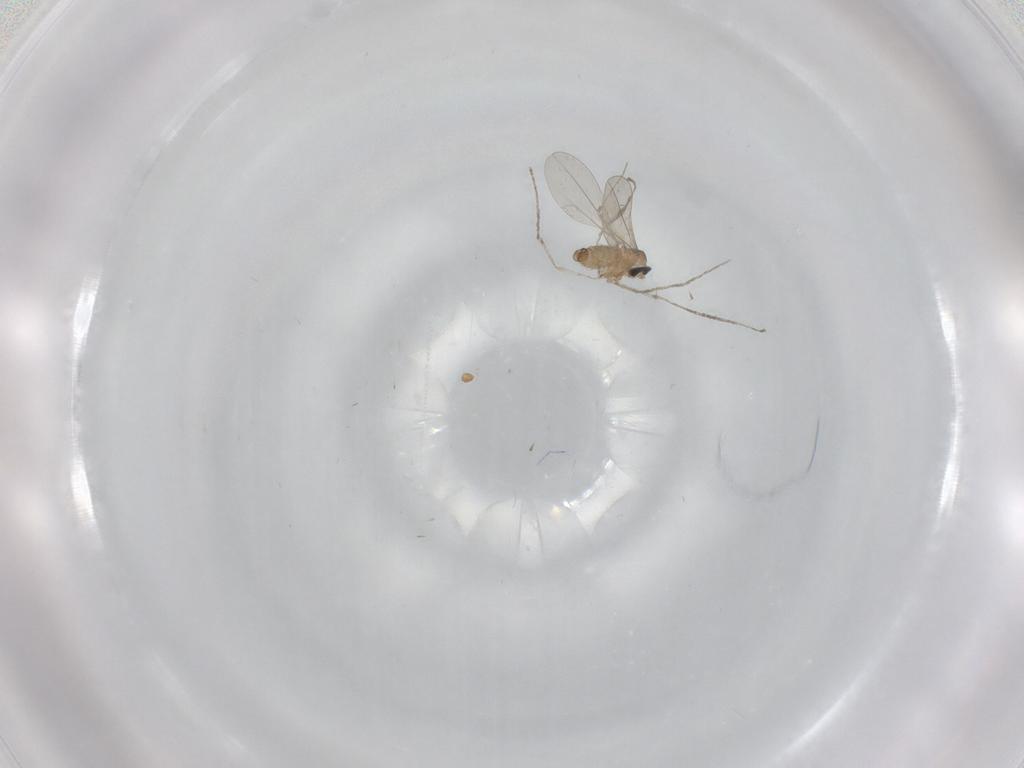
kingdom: Animalia
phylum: Arthropoda
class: Insecta
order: Diptera
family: Cecidomyiidae
